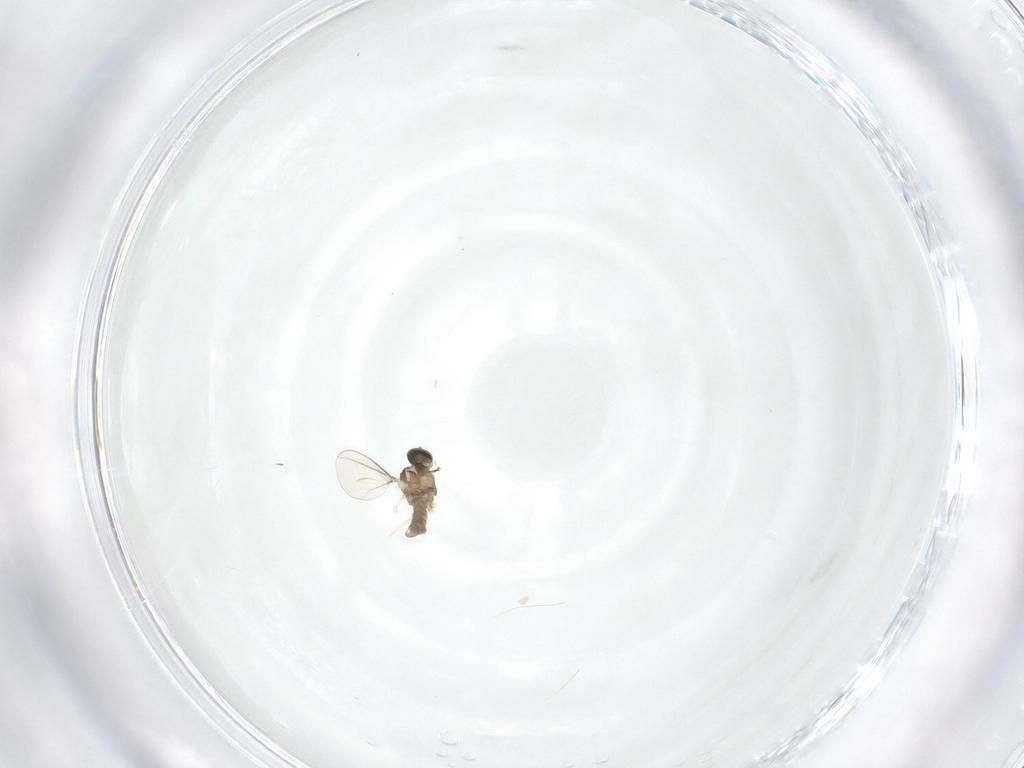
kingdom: Animalia
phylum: Arthropoda
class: Insecta
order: Diptera
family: Cecidomyiidae
